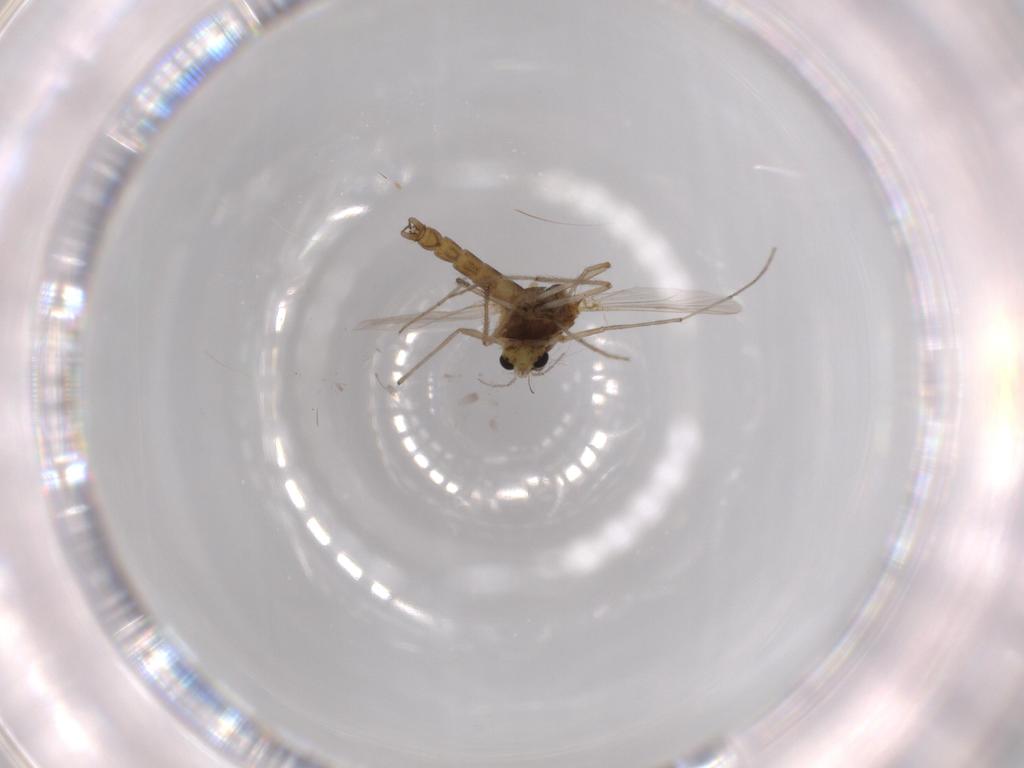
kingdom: Animalia
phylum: Arthropoda
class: Insecta
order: Diptera
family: Chironomidae
